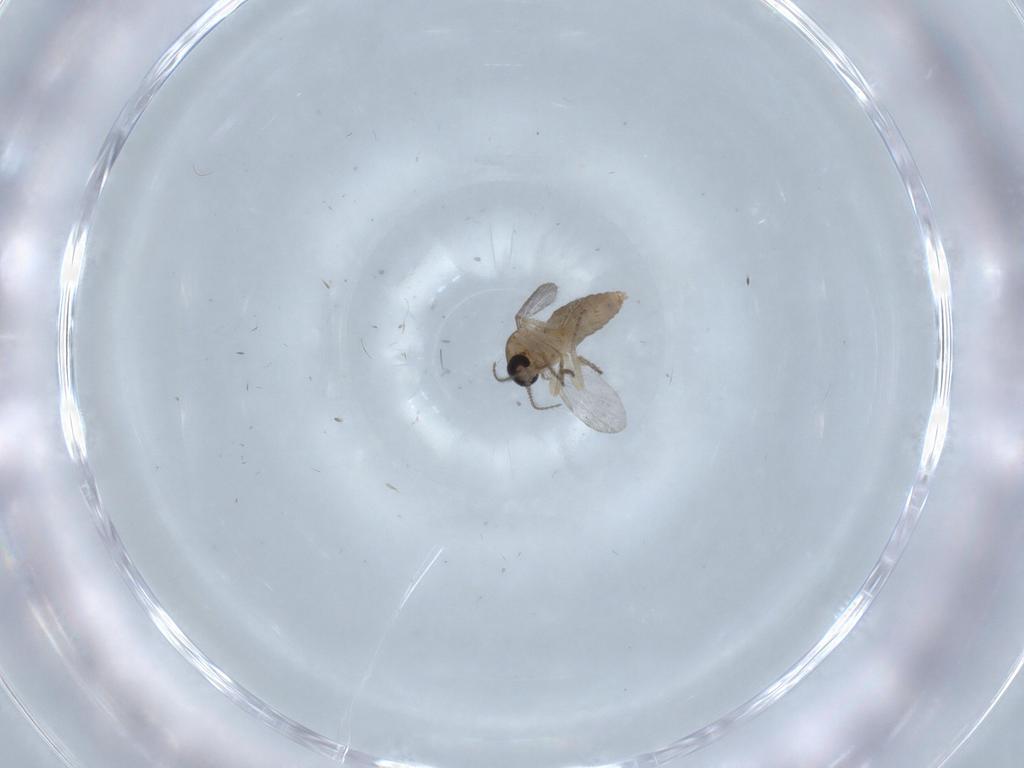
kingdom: Animalia
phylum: Arthropoda
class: Insecta
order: Diptera
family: Ceratopogonidae
